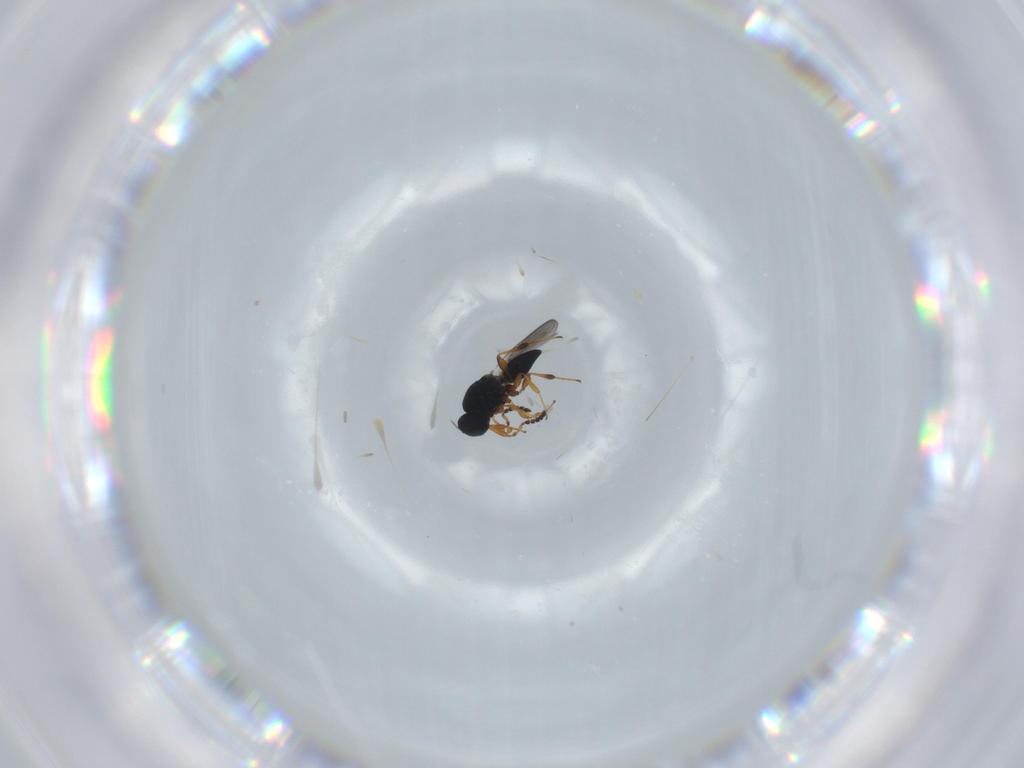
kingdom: Animalia
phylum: Arthropoda
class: Insecta
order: Hymenoptera
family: Platygastridae
